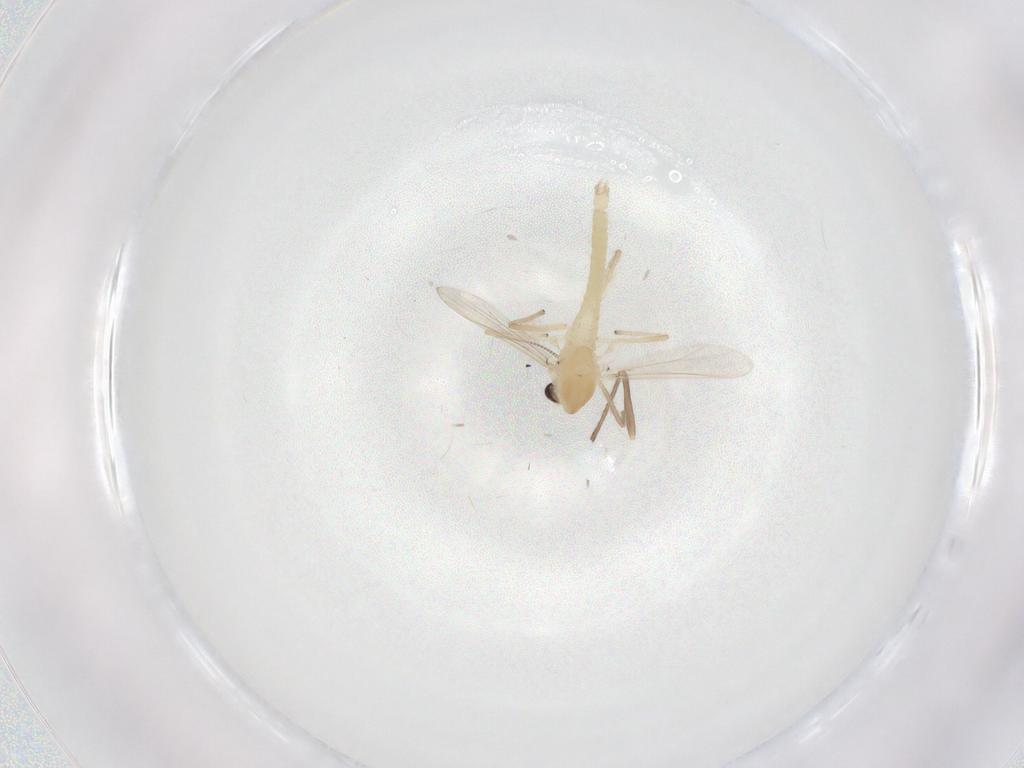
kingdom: Animalia
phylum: Arthropoda
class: Insecta
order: Diptera
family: Chironomidae
